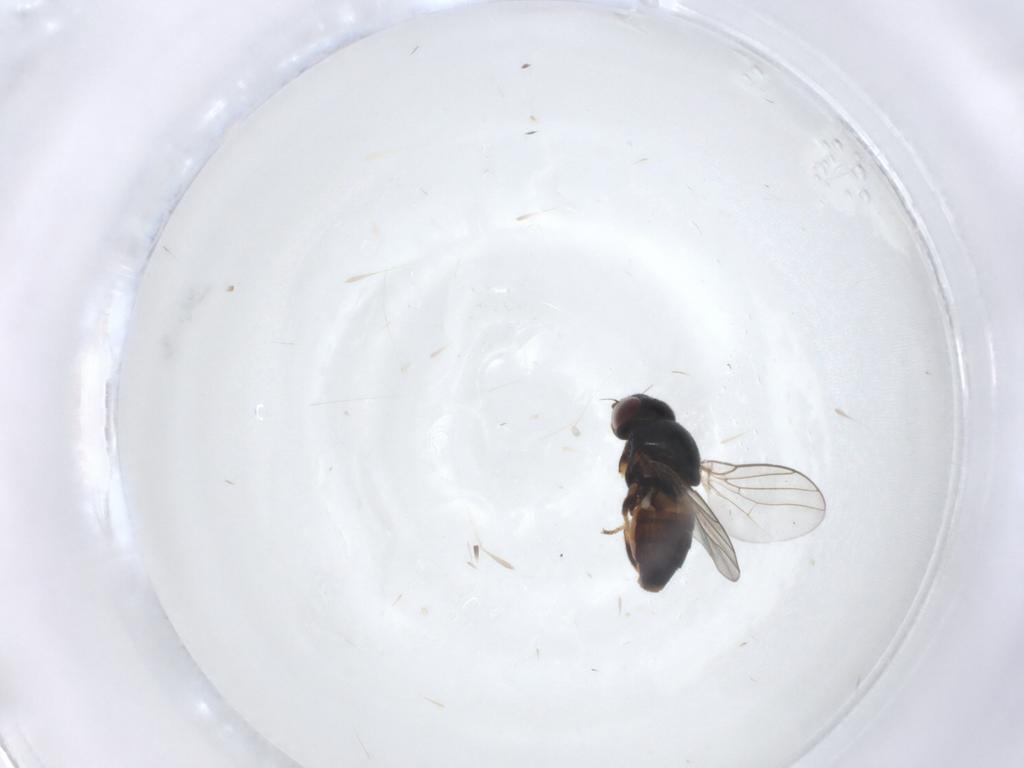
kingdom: Animalia
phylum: Arthropoda
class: Insecta
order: Diptera
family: Chloropidae
